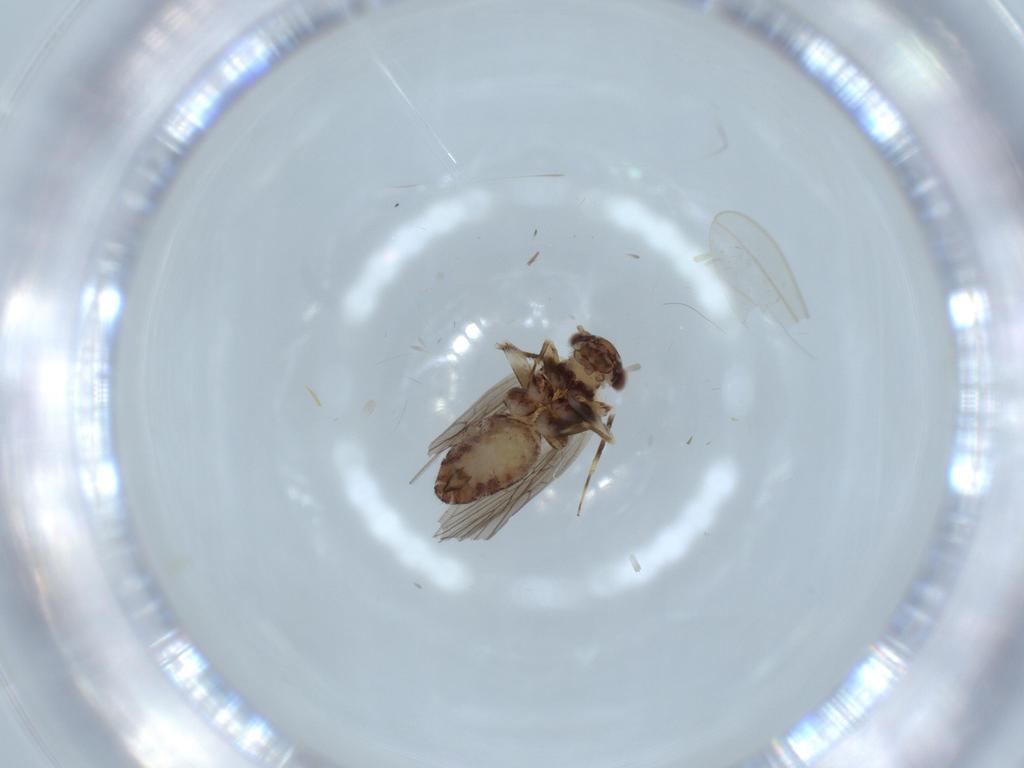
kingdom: Animalia
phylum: Arthropoda
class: Insecta
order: Psocodea
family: Lepidopsocidae
